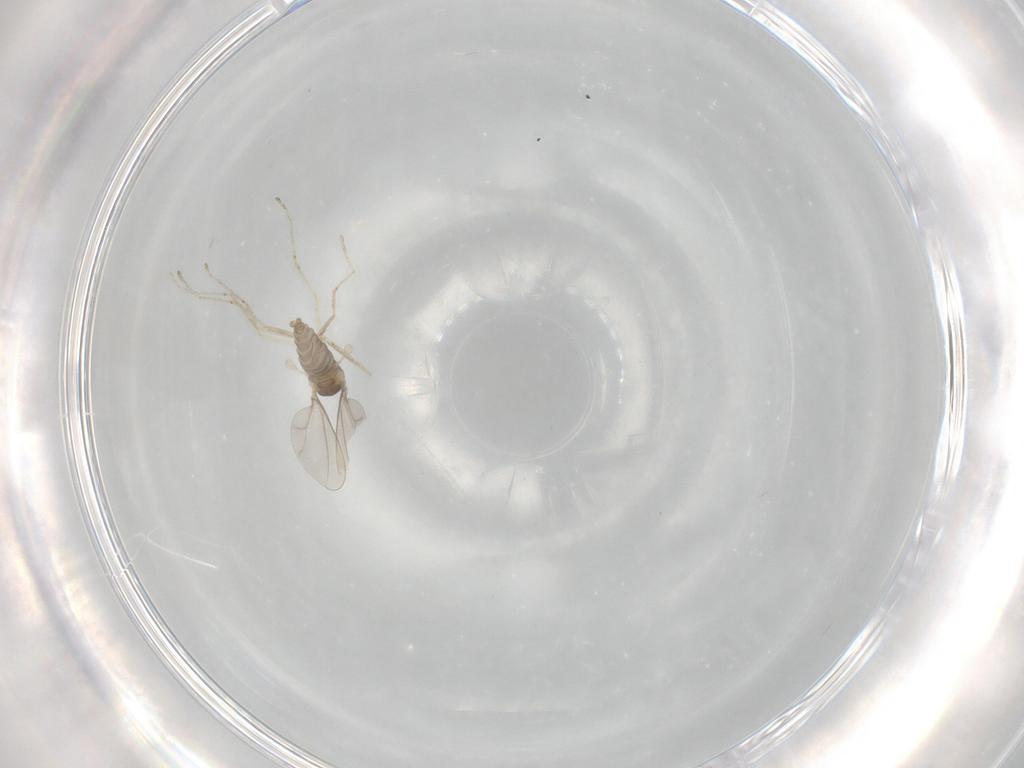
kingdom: Animalia
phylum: Arthropoda
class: Insecta
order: Diptera
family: Cecidomyiidae
